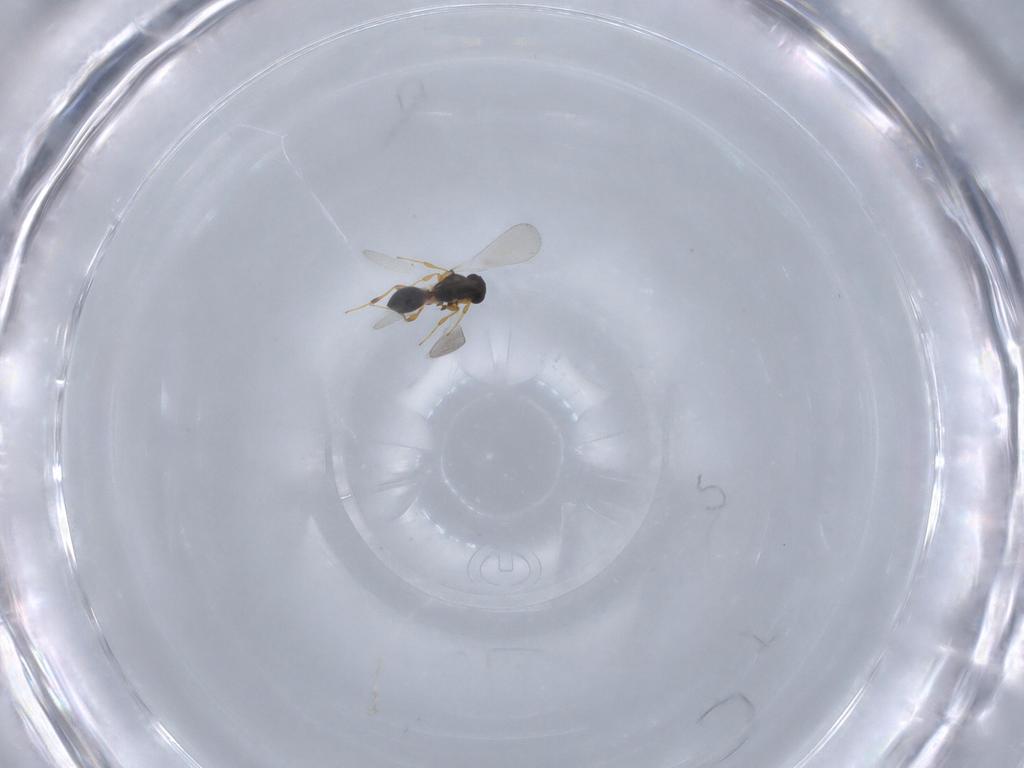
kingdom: Animalia
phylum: Arthropoda
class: Insecta
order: Hymenoptera
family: Platygastridae
